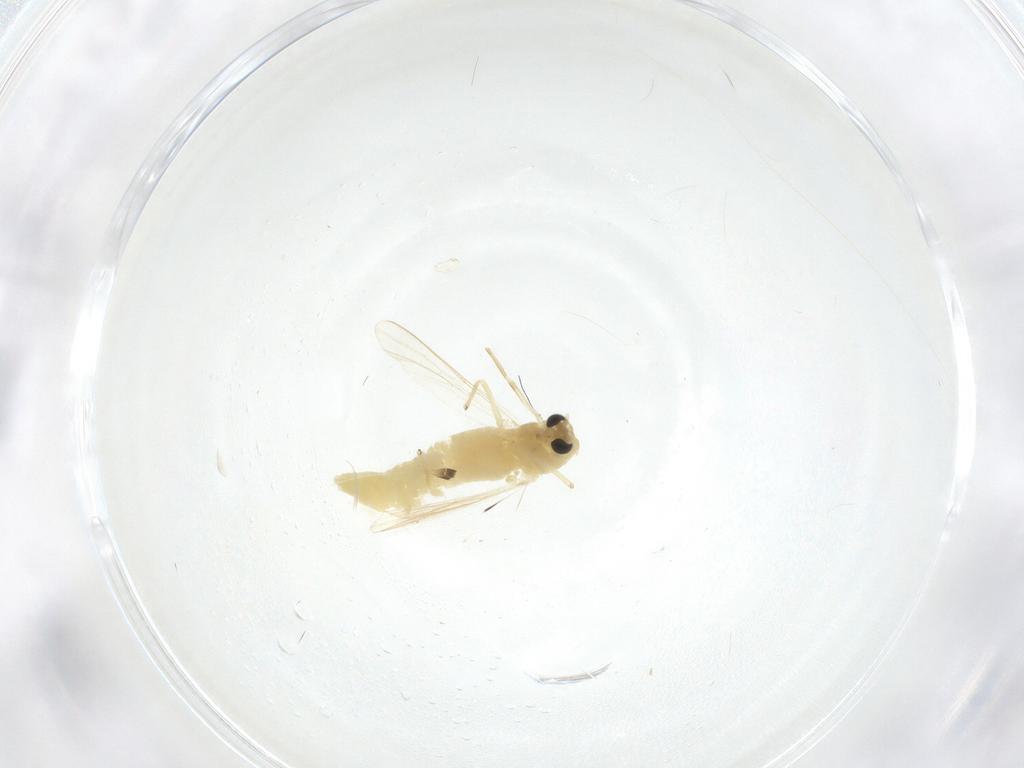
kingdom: Animalia
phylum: Arthropoda
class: Insecta
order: Diptera
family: Chironomidae
